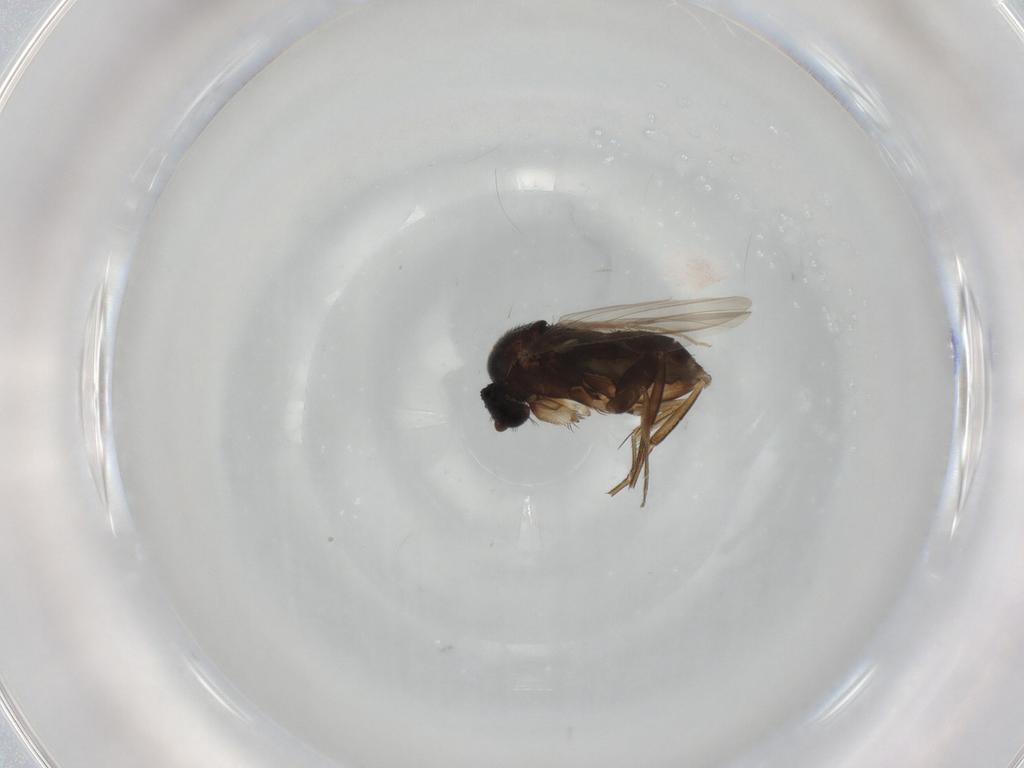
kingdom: Animalia
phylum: Arthropoda
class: Insecta
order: Diptera
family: Phoridae
